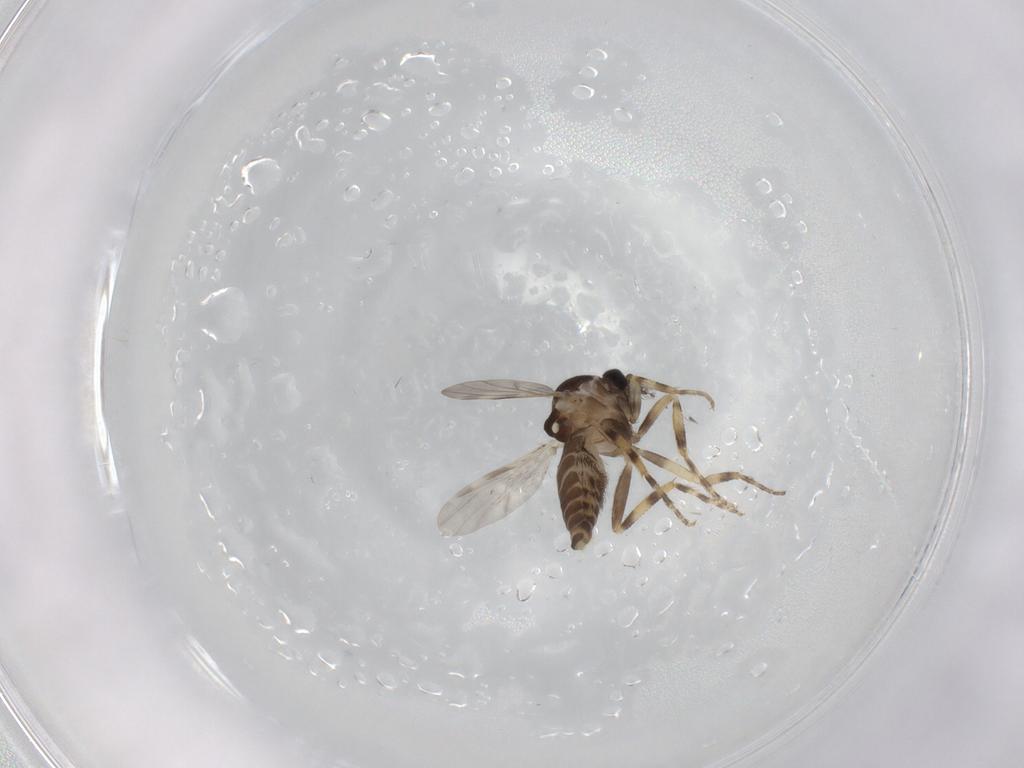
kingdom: Animalia
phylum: Arthropoda
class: Insecta
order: Diptera
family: Ceratopogonidae
